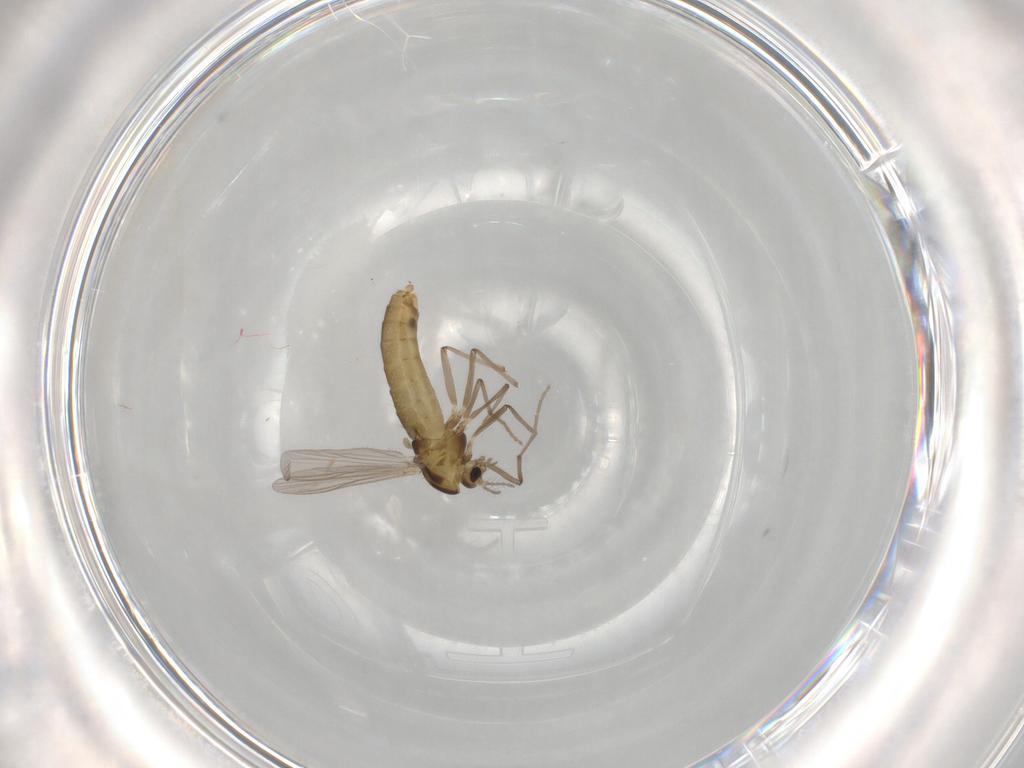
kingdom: Animalia
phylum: Arthropoda
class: Insecta
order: Diptera
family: Chironomidae
